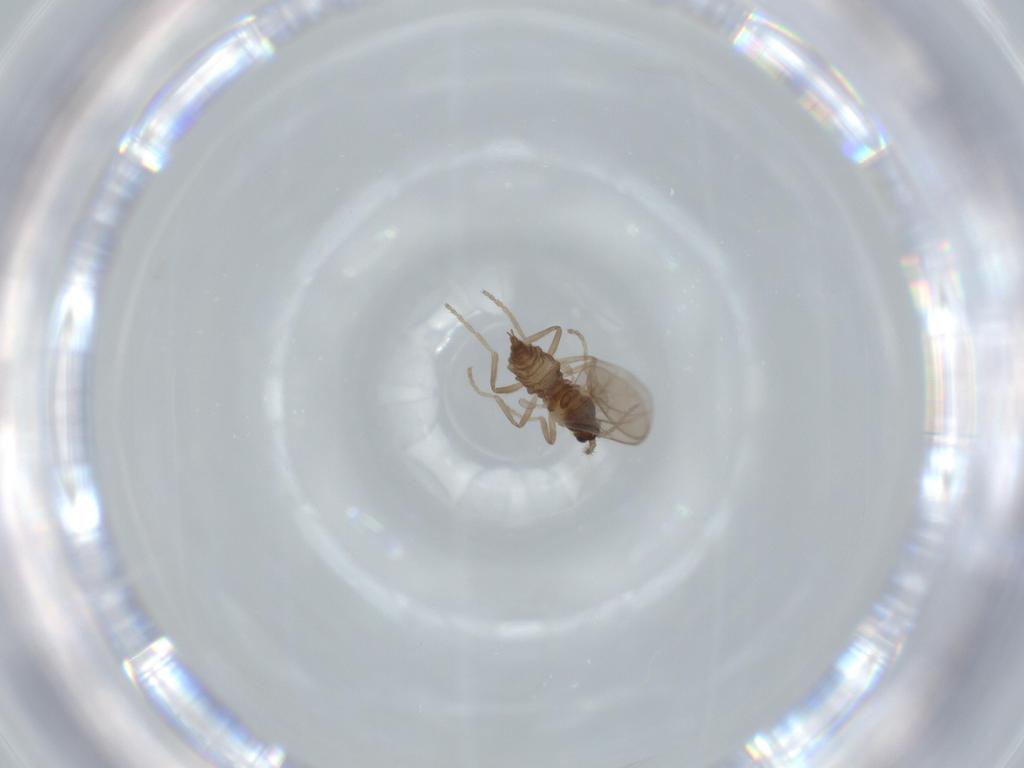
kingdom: Animalia
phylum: Arthropoda
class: Insecta
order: Diptera
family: Cecidomyiidae
